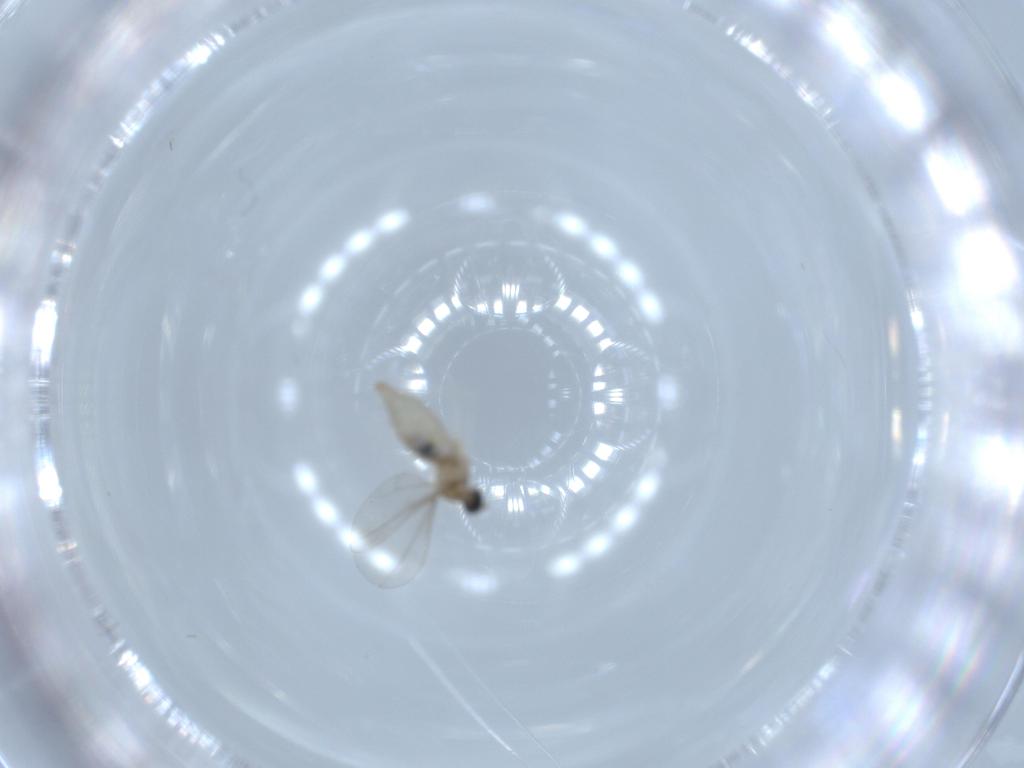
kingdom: Animalia
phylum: Arthropoda
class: Insecta
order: Diptera
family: Cecidomyiidae
